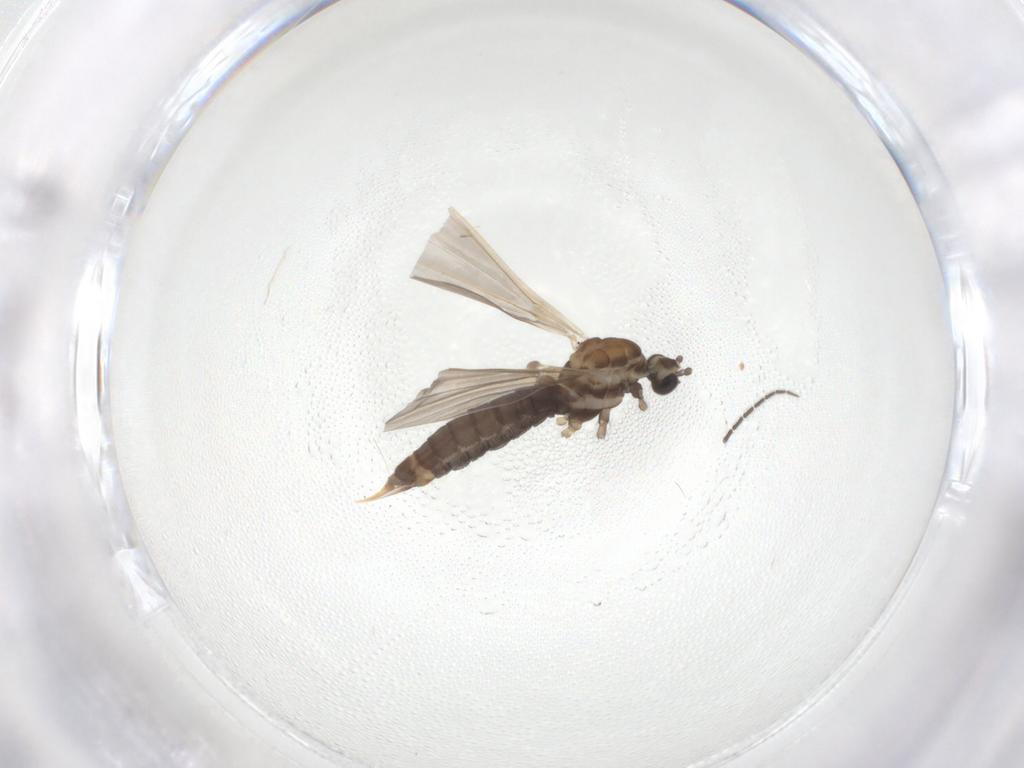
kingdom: Animalia
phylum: Arthropoda
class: Insecta
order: Diptera
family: Limoniidae
